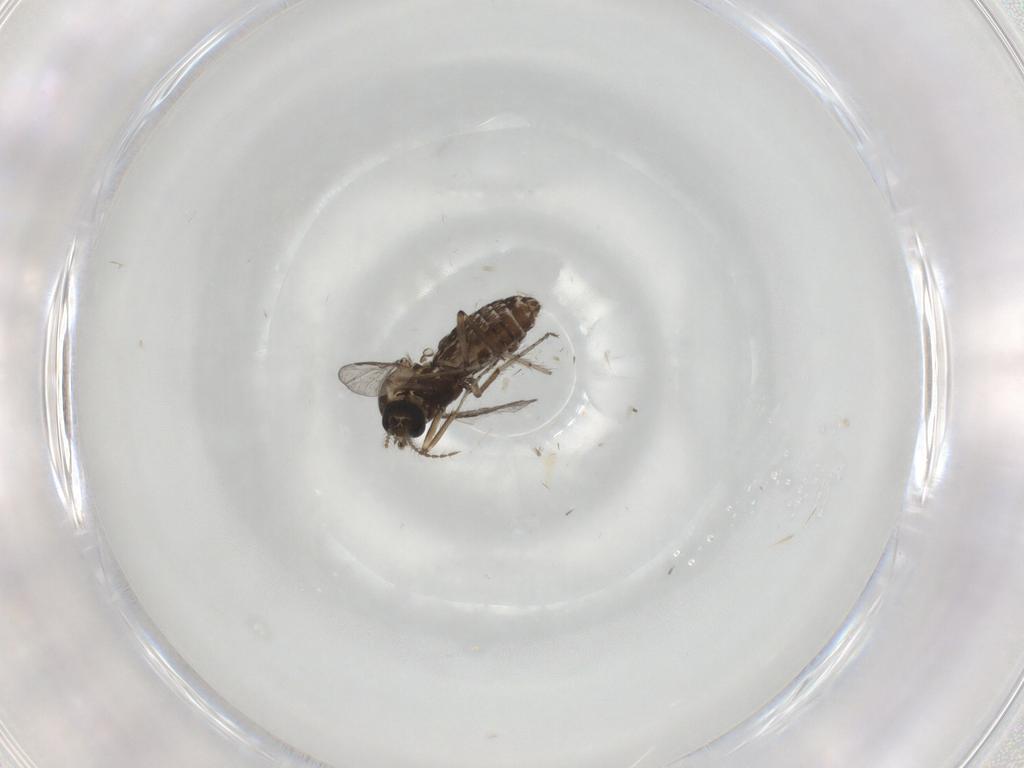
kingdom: Animalia
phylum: Arthropoda
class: Insecta
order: Diptera
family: Ceratopogonidae
